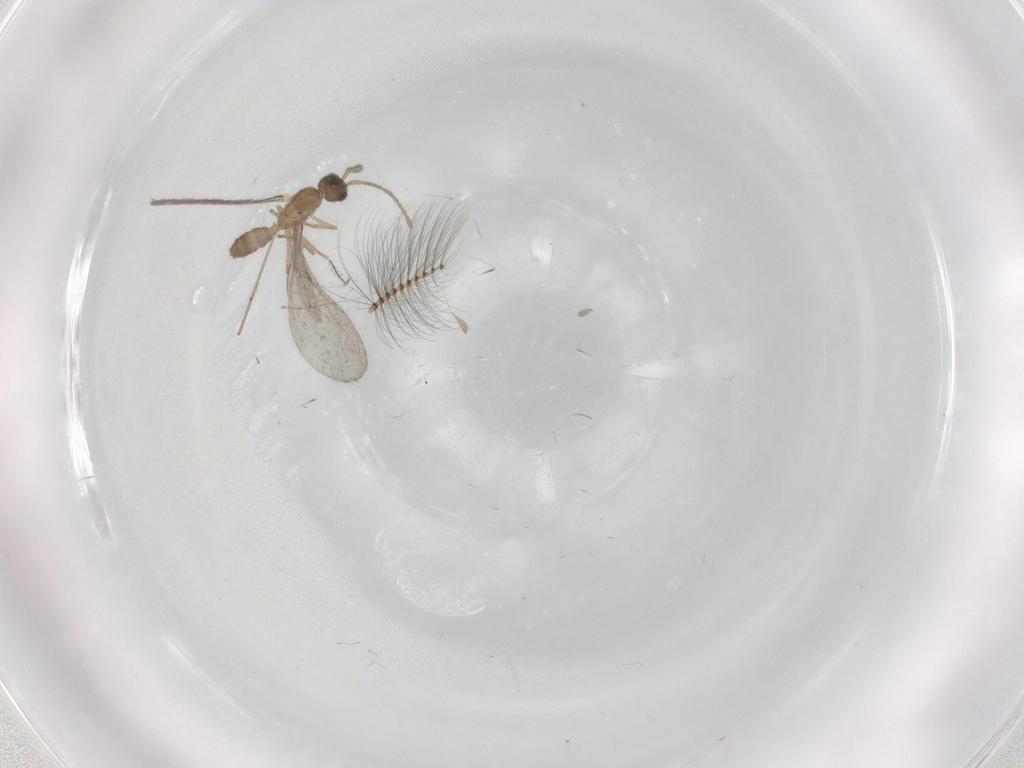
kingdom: Animalia
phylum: Arthropoda
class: Insecta
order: Hymenoptera
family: Formicidae
